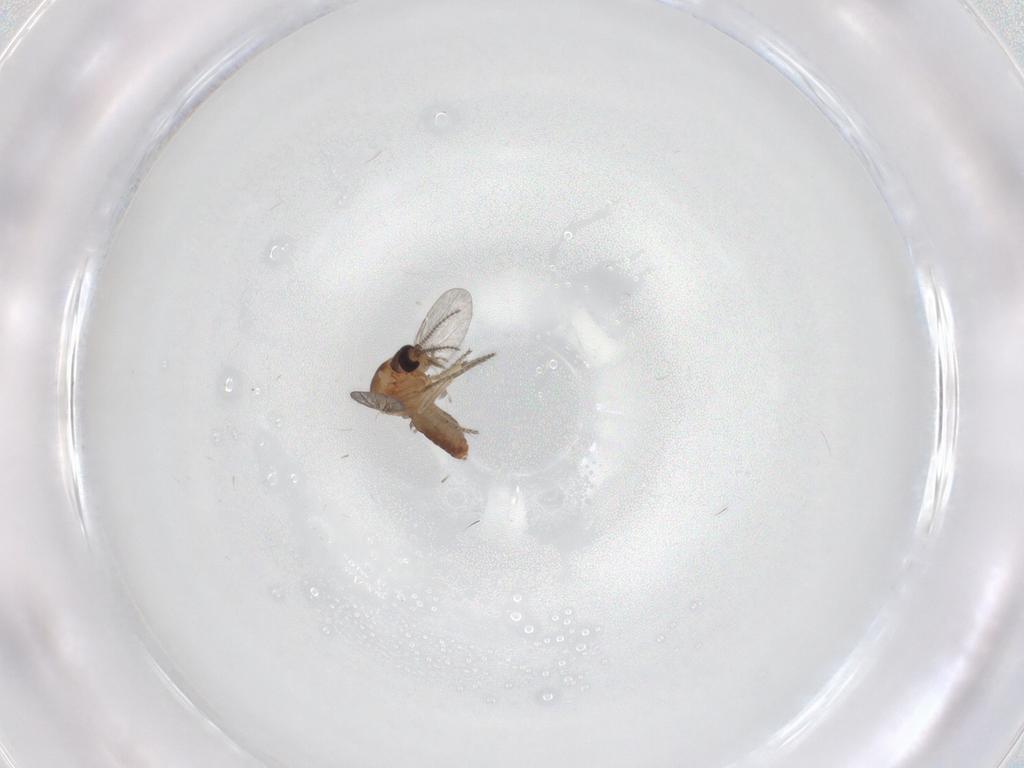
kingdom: Animalia
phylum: Arthropoda
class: Insecta
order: Diptera
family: Ceratopogonidae
